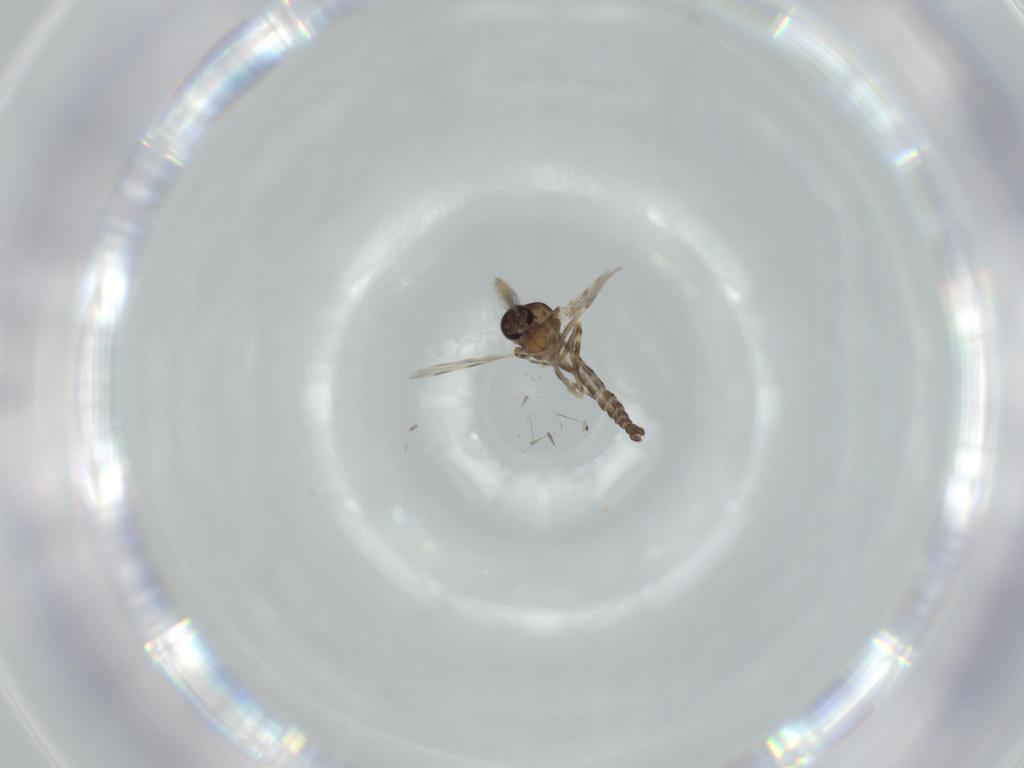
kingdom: Animalia
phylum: Arthropoda
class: Insecta
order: Diptera
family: Ceratopogonidae
